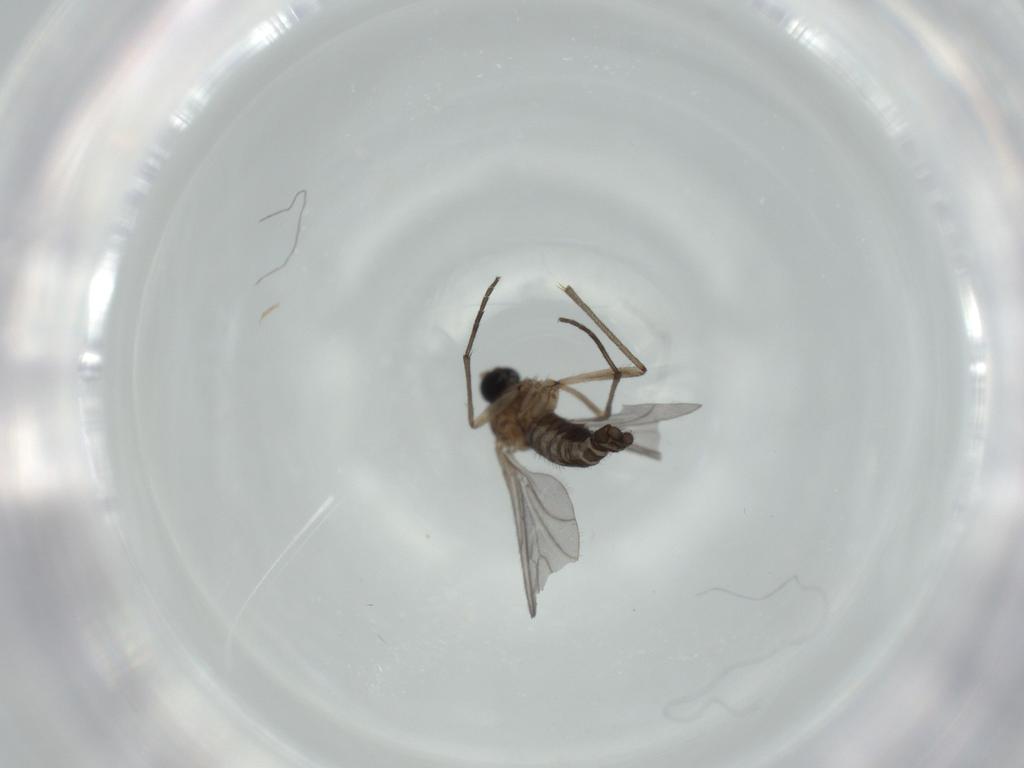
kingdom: Animalia
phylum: Arthropoda
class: Insecta
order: Diptera
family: Sciaridae
